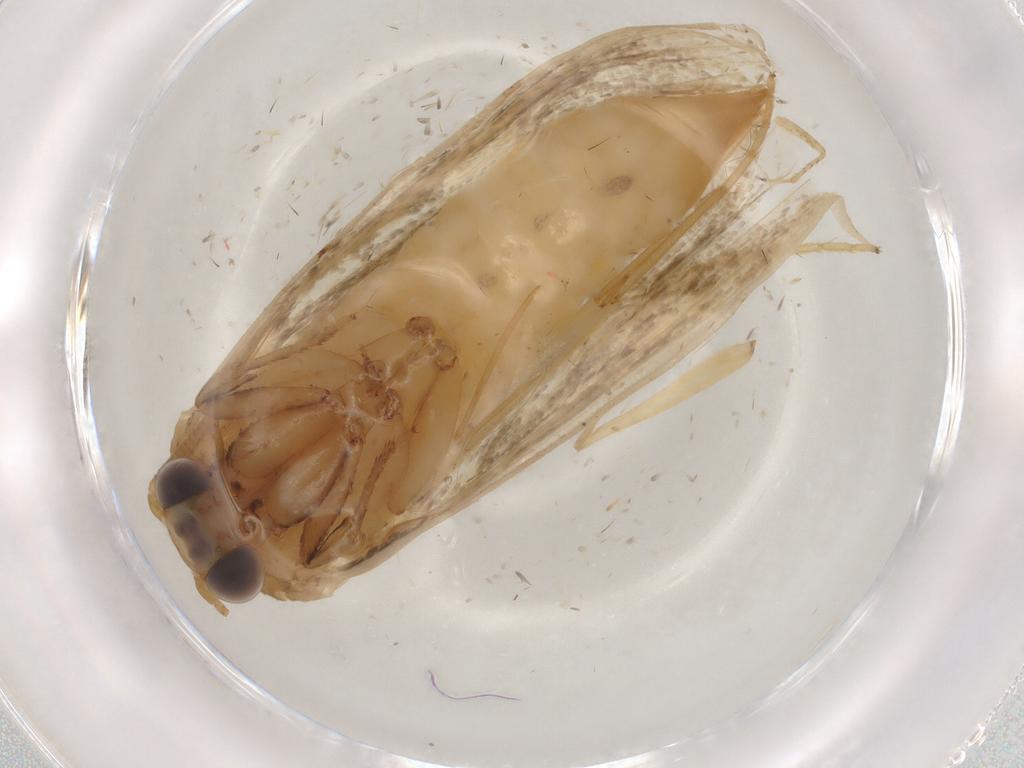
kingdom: Animalia
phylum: Arthropoda
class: Insecta
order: Lepidoptera
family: Tineidae
